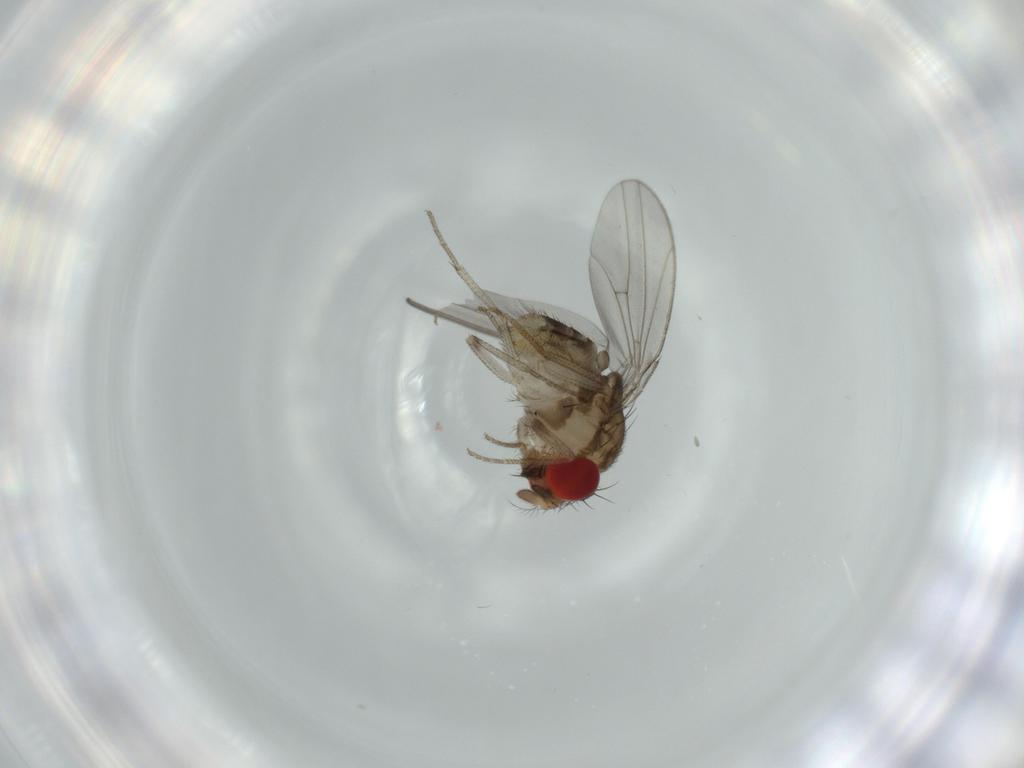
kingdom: Animalia
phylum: Arthropoda
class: Insecta
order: Diptera
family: Drosophilidae
